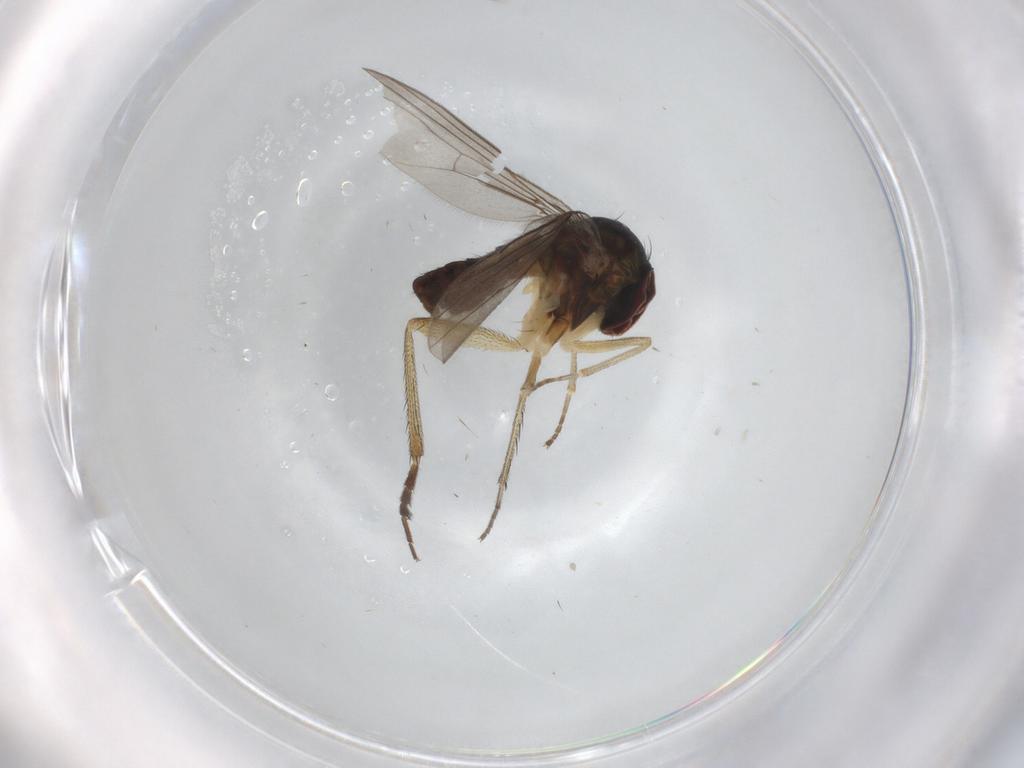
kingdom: Animalia
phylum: Arthropoda
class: Insecta
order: Diptera
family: Dolichopodidae
